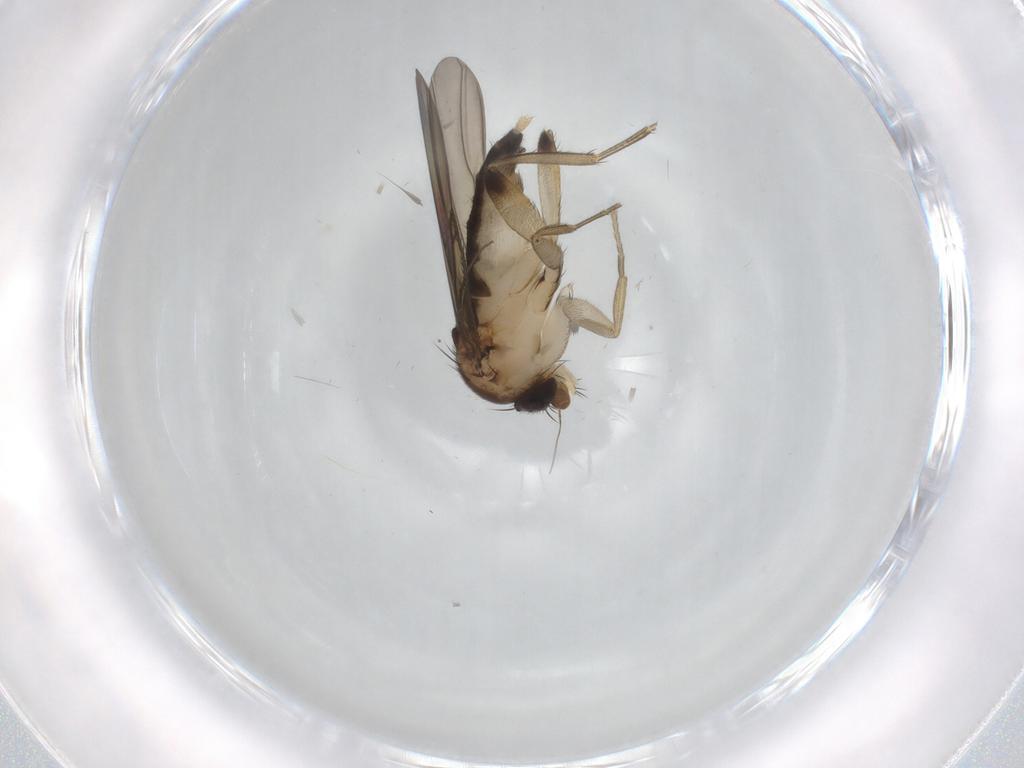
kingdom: Animalia
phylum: Arthropoda
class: Insecta
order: Diptera
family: Phoridae
